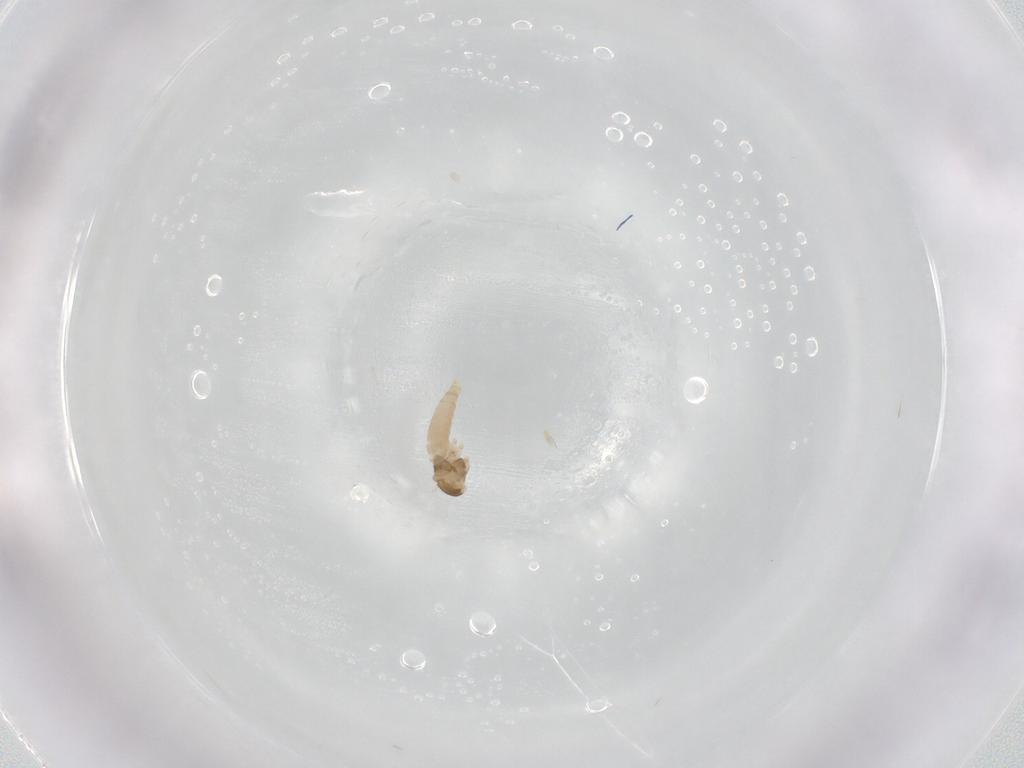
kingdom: Animalia
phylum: Arthropoda
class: Insecta
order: Diptera
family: Cecidomyiidae
